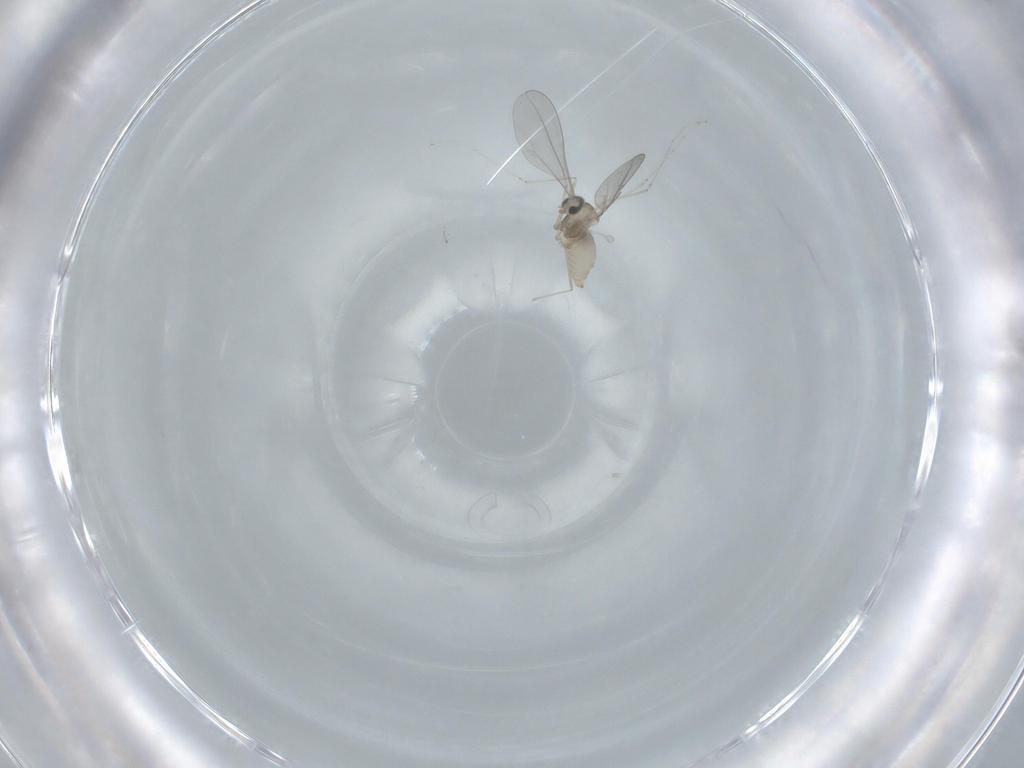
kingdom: Animalia
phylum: Arthropoda
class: Insecta
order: Diptera
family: Cecidomyiidae
